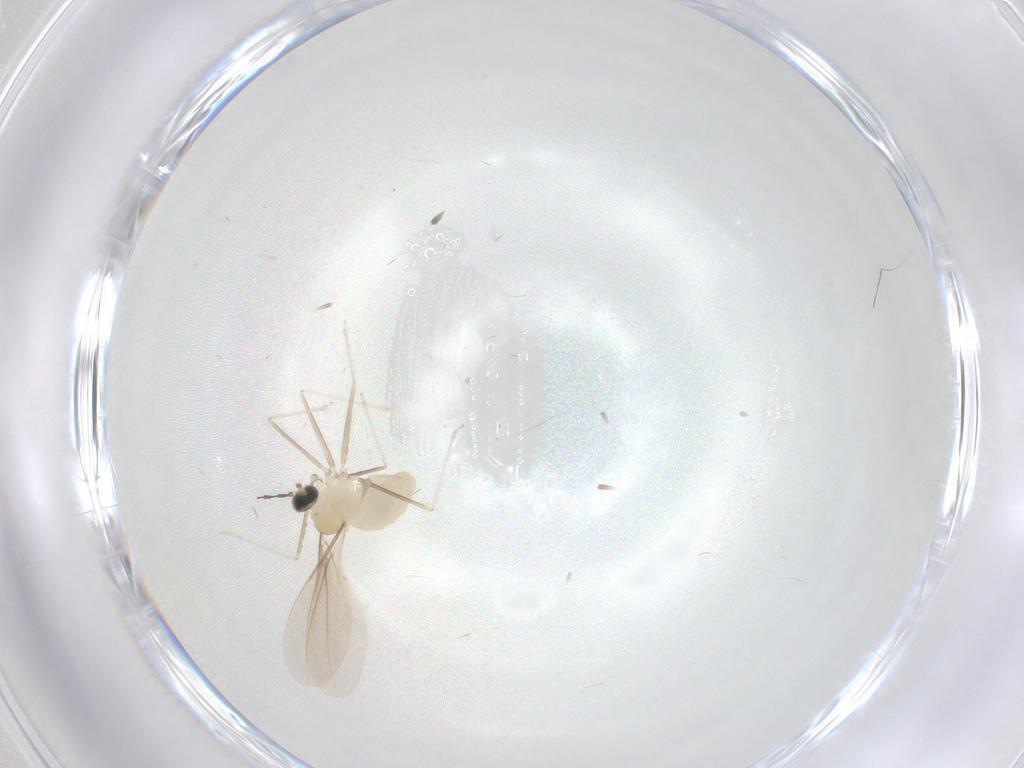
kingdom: Animalia
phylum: Arthropoda
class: Insecta
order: Diptera
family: Cecidomyiidae
